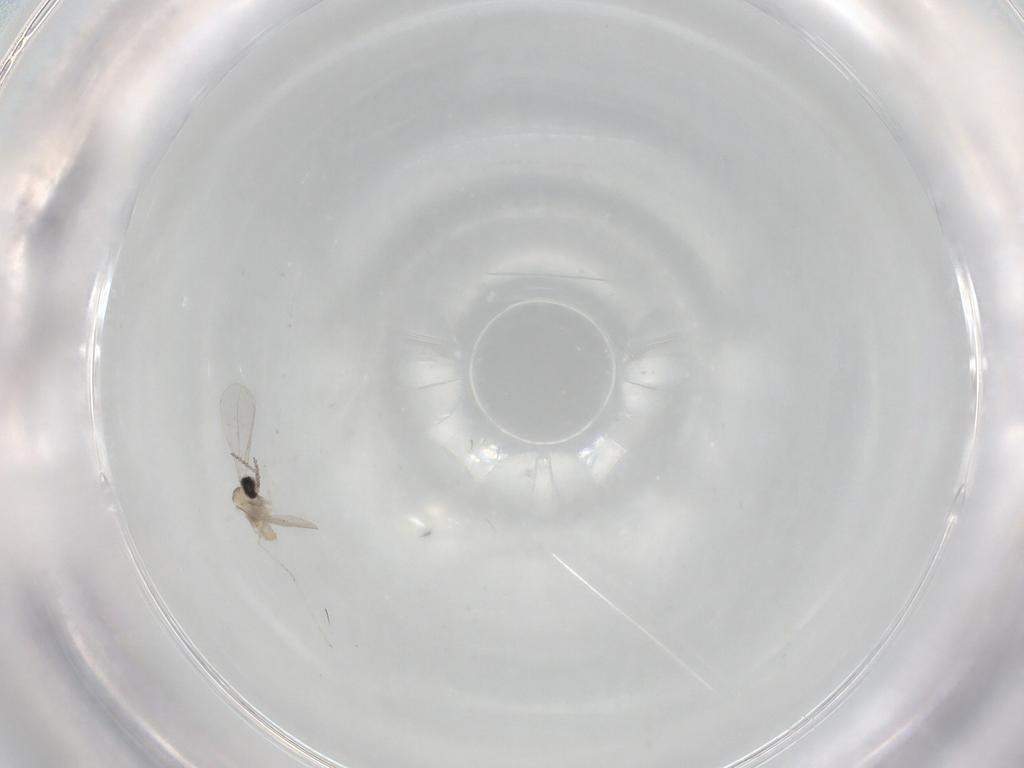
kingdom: Animalia
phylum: Arthropoda
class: Insecta
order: Diptera
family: Cecidomyiidae
